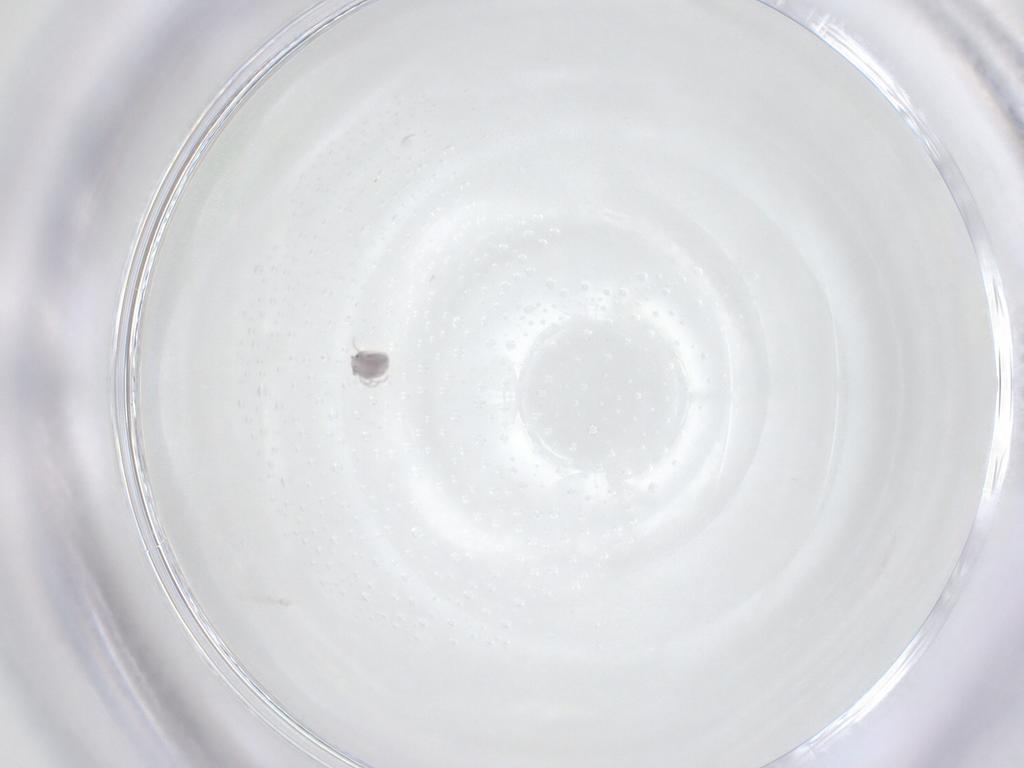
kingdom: Animalia
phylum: Arthropoda
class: Arachnida
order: Trombidiformes
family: Pionidae
